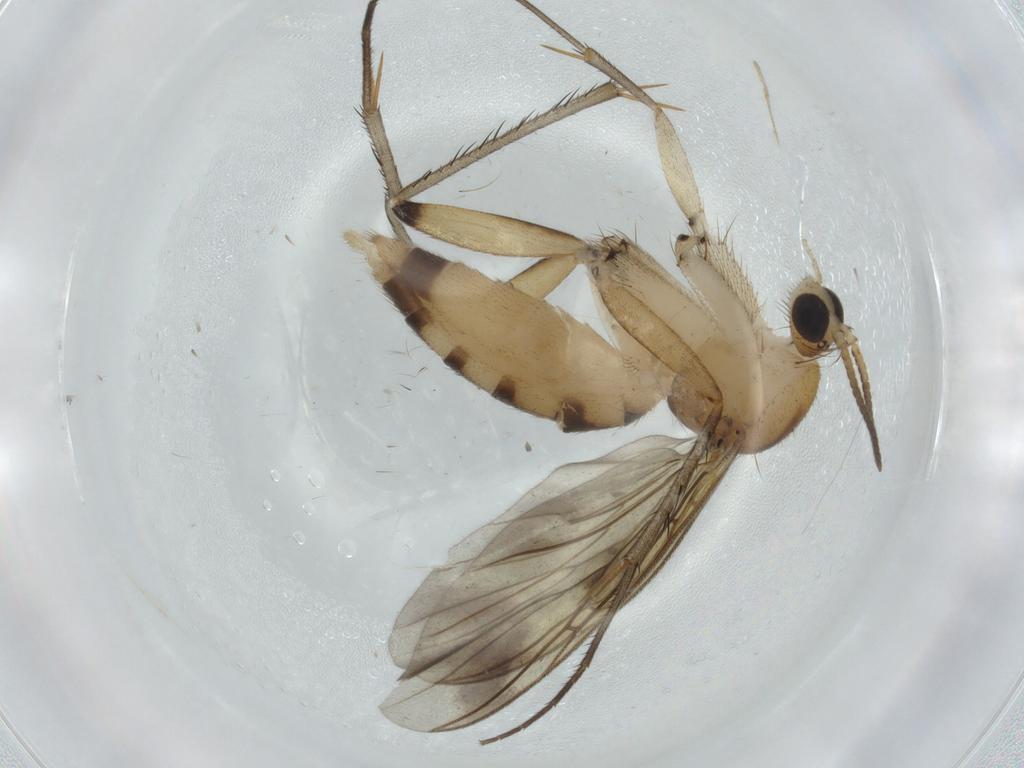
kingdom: Animalia
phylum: Arthropoda
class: Insecta
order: Diptera
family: Mycetophilidae
